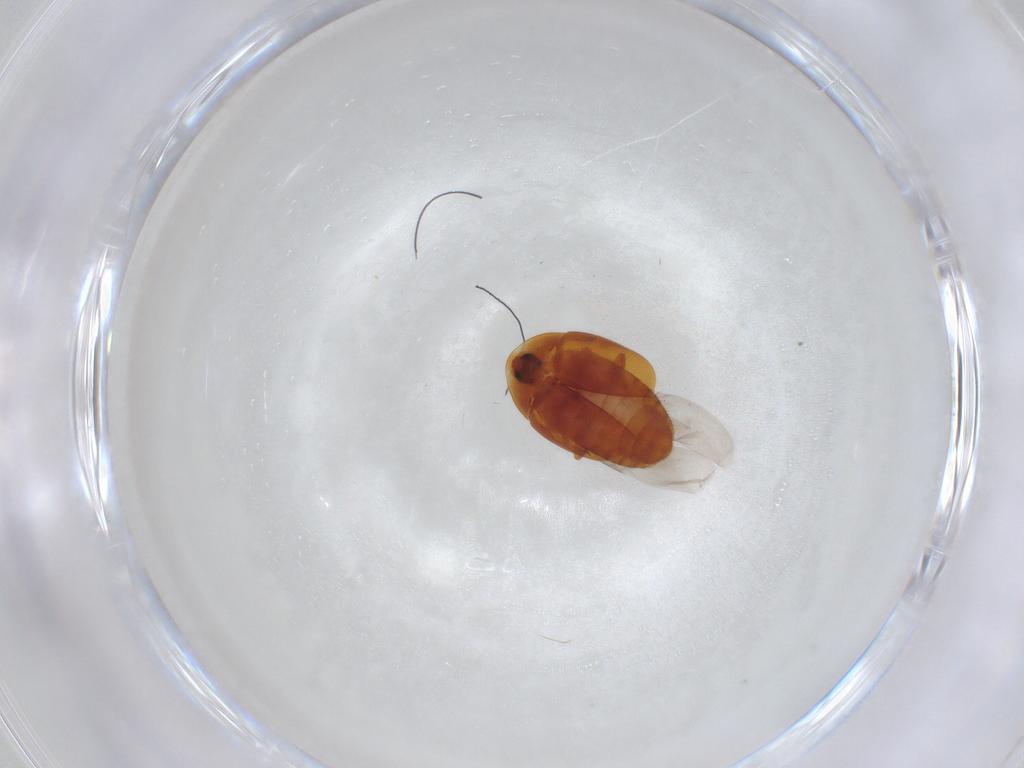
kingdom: Animalia
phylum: Arthropoda
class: Insecta
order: Coleoptera
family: Corylophidae
